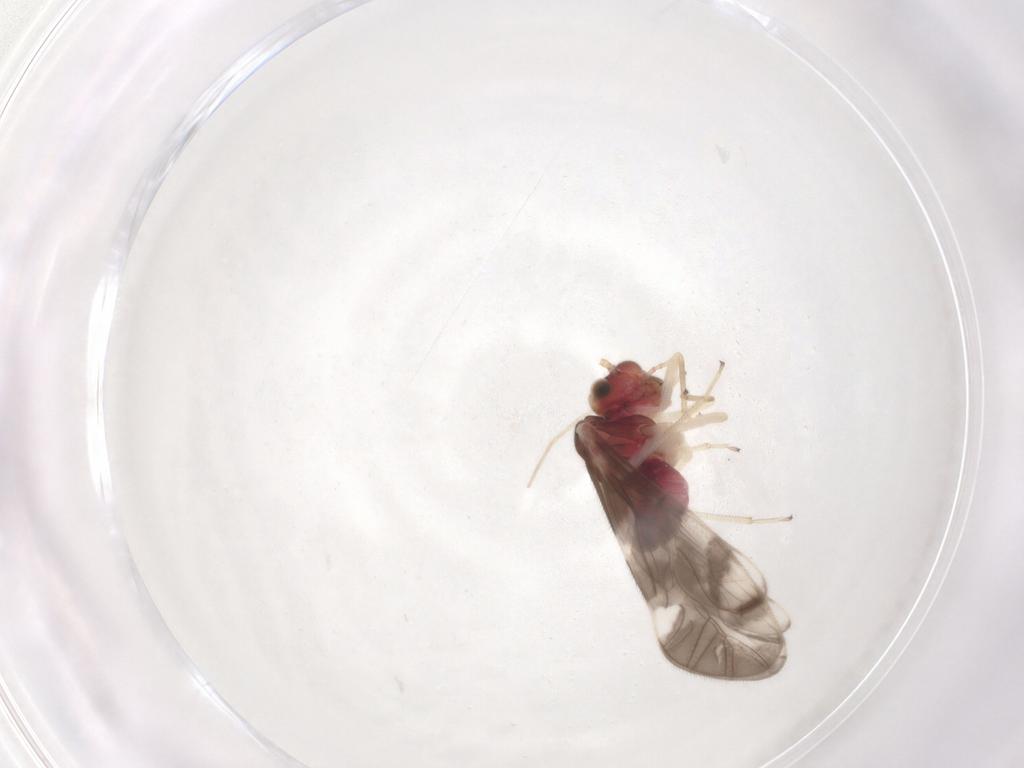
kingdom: Animalia
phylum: Arthropoda
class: Insecta
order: Psocodea
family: Caeciliusidae
